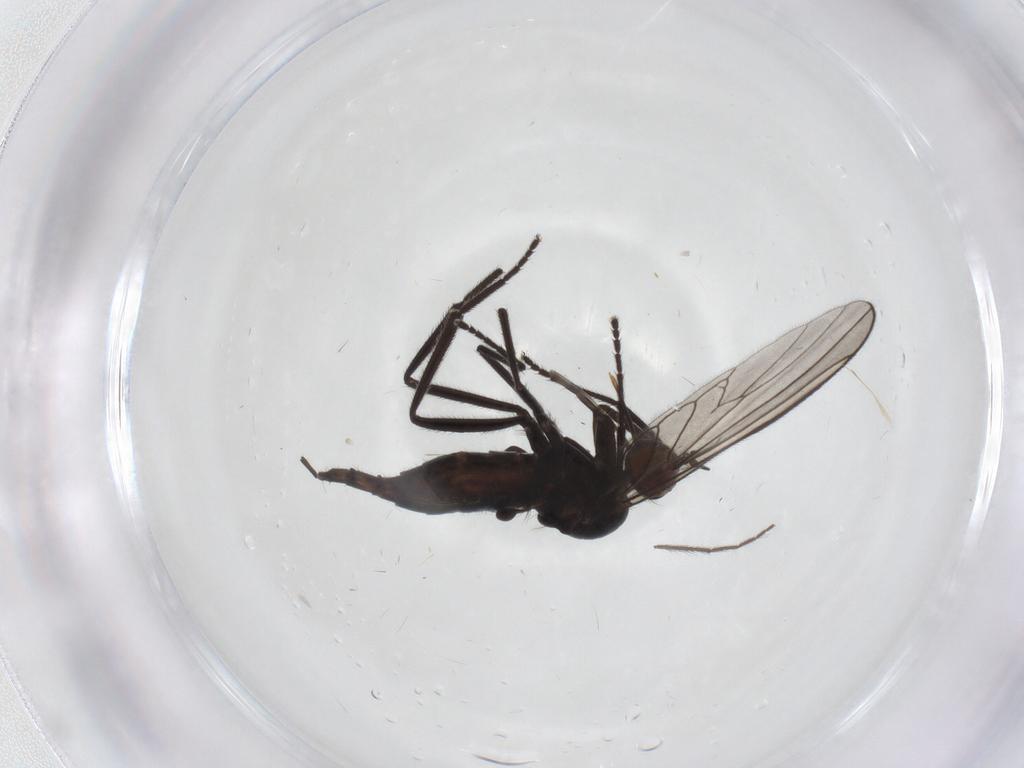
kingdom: Animalia
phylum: Arthropoda
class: Insecta
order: Diptera
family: Empididae
